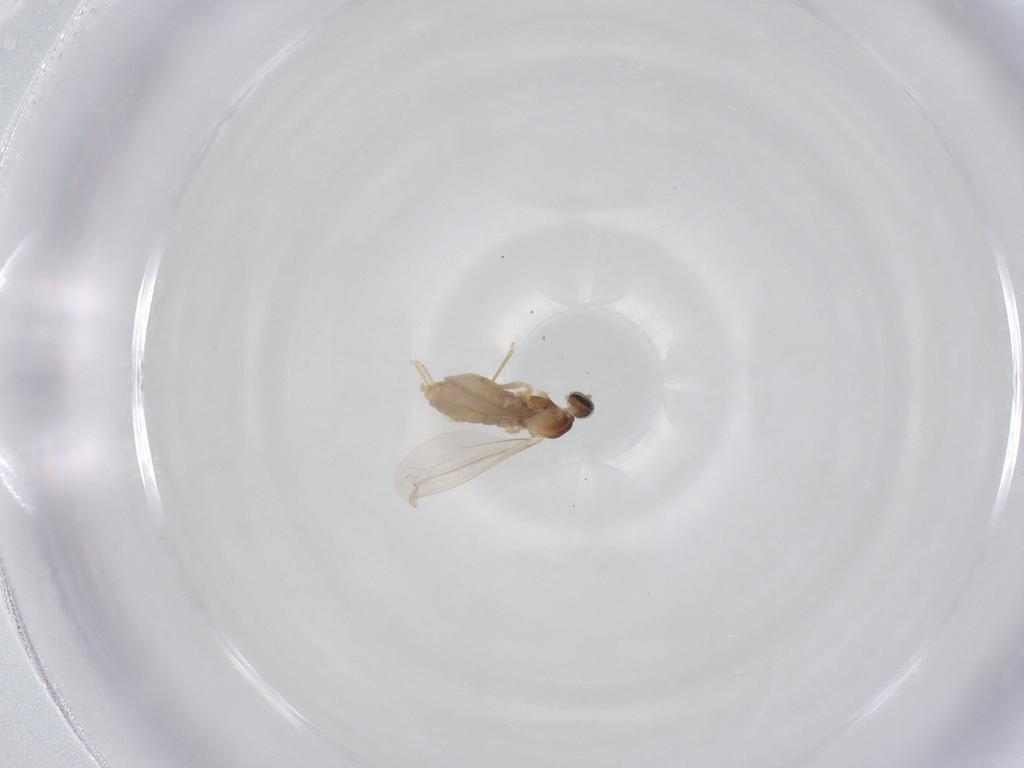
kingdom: Animalia
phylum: Arthropoda
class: Insecta
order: Diptera
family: Cecidomyiidae
